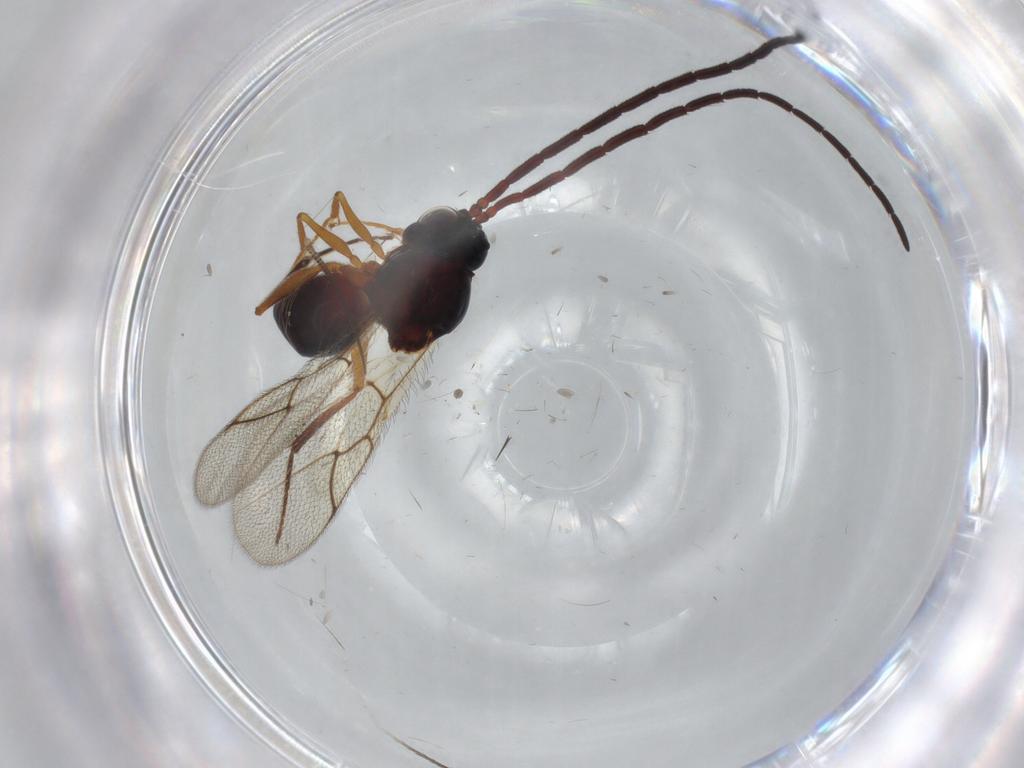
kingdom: Animalia
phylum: Arthropoda
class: Insecta
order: Hymenoptera
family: Figitidae
